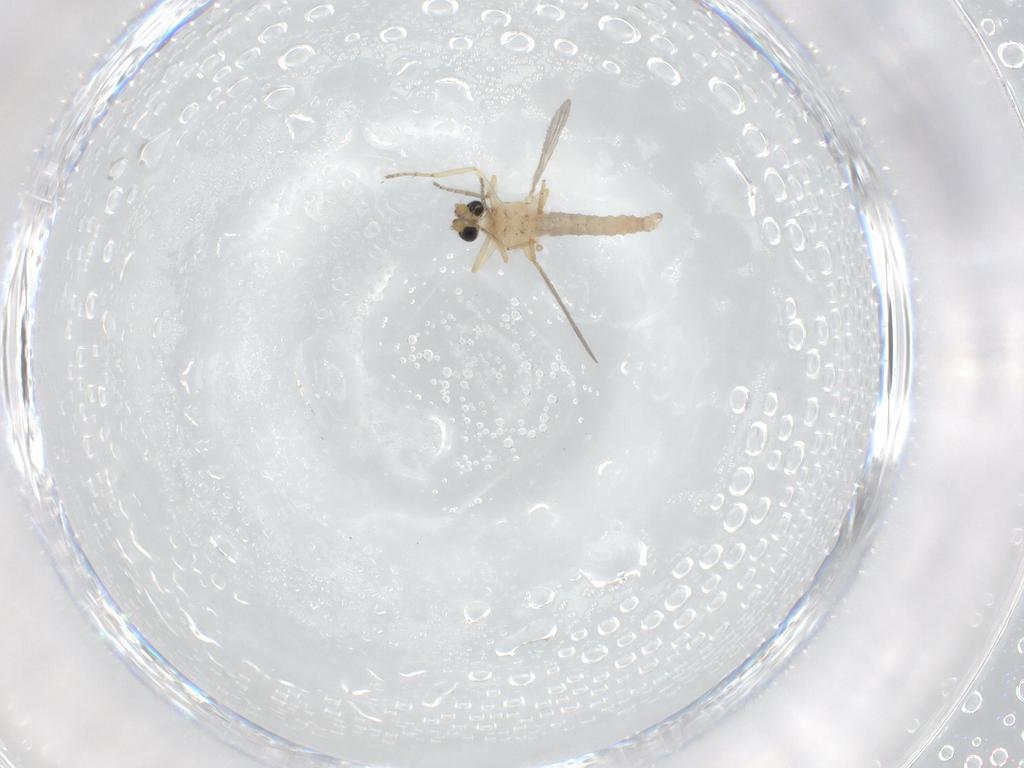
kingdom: Animalia
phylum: Arthropoda
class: Insecta
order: Diptera
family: Ceratopogonidae
